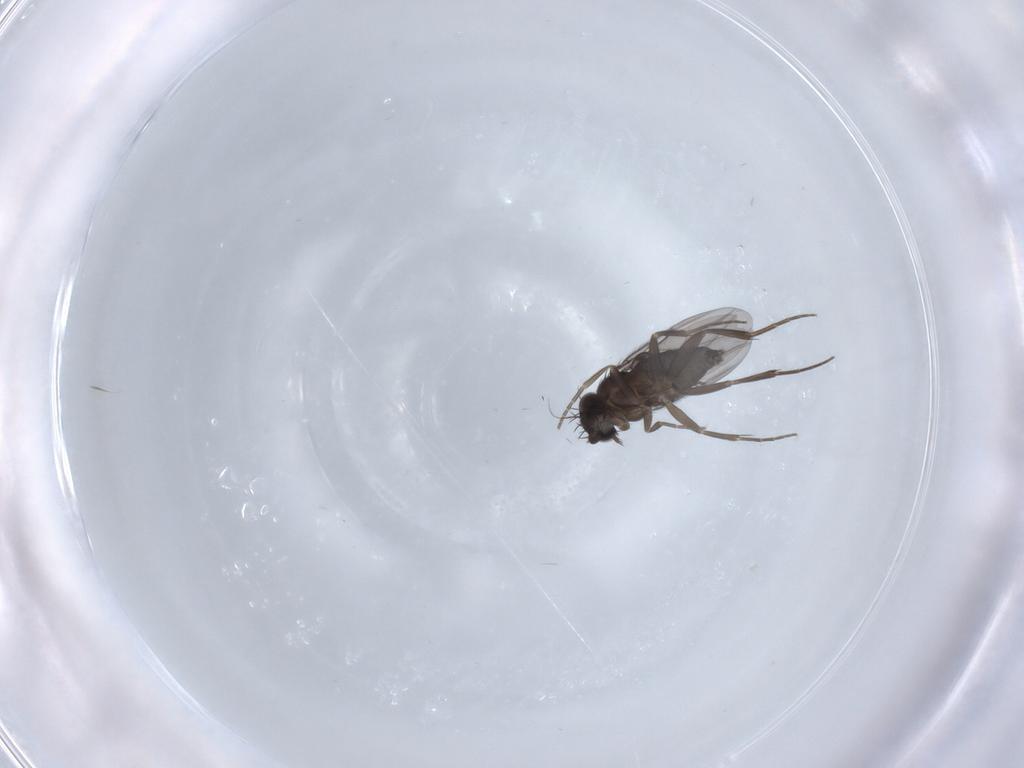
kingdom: Animalia
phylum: Arthropoda
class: Insecta
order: Diptera
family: Phoridae
